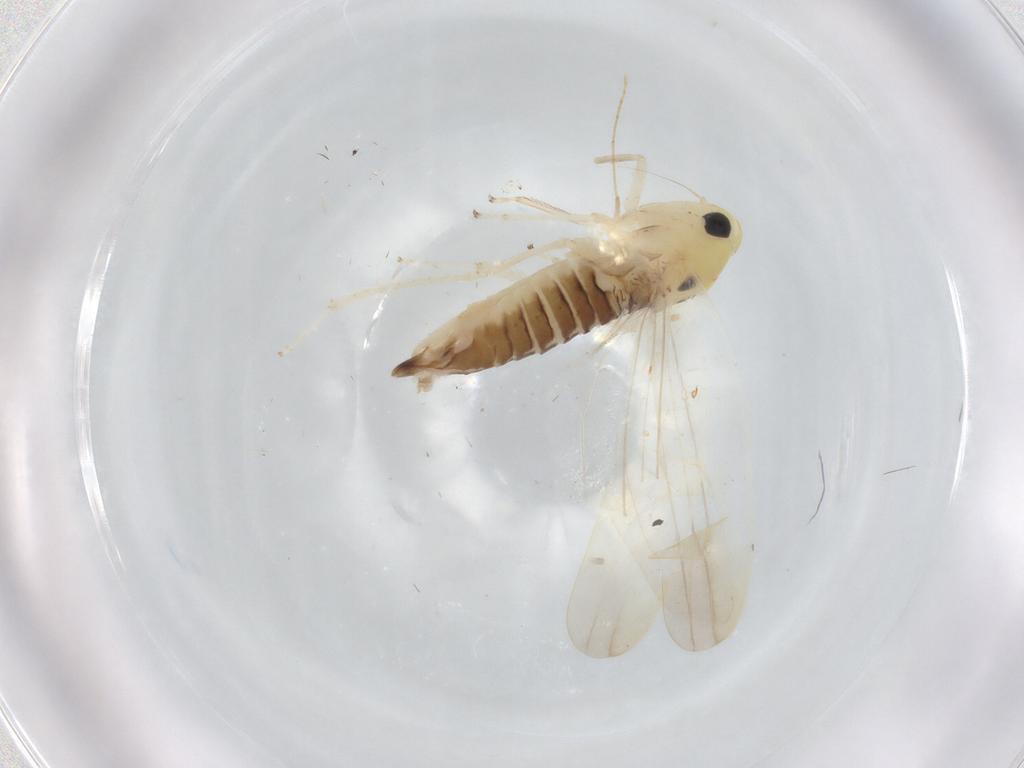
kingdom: Animalia
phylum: Arthropoda
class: Insecta
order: Hemiptera
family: Cicadellidae
